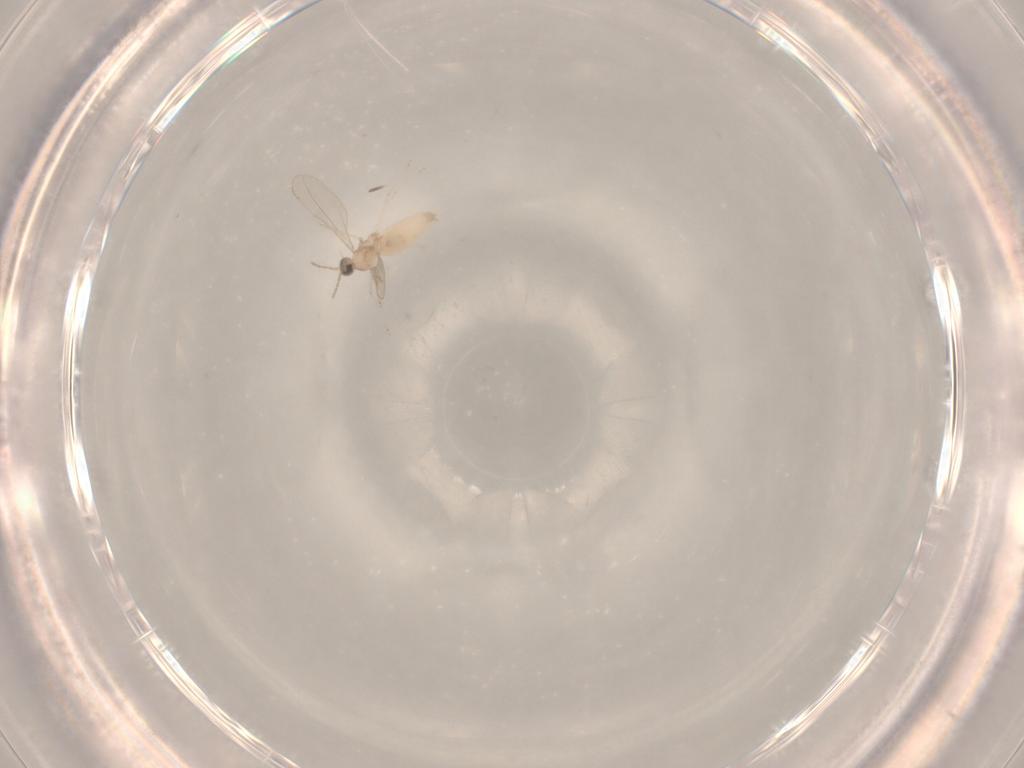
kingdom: Animalia
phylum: Arthropoda
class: Insecta
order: Diptera
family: Cecidomyiidae
